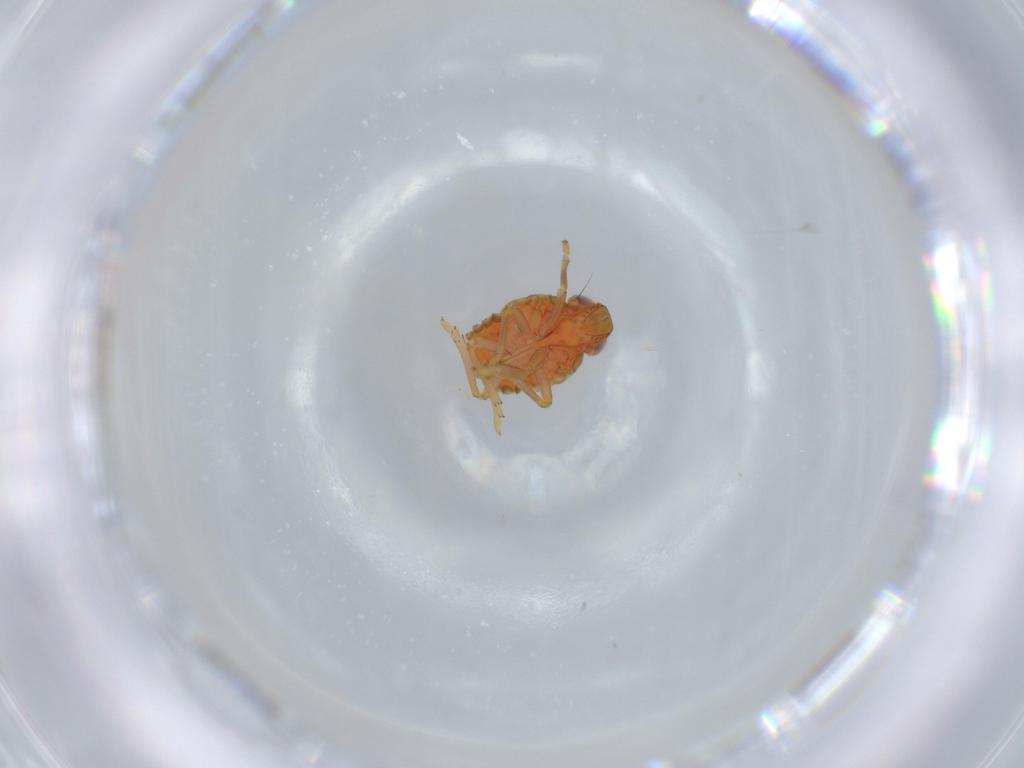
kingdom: Animalia
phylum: Arthropoda
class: Insecta
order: Hemiptera
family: Issidae
